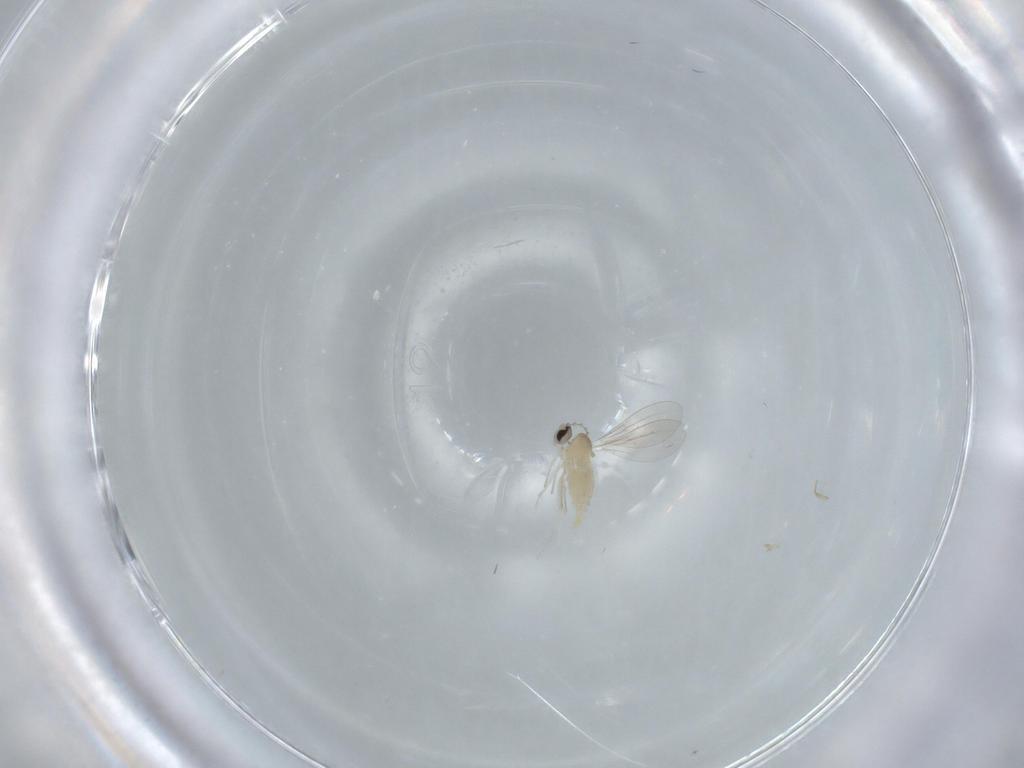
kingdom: Animalia
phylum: Arthropoda
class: Insecta
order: Diptera
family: Cecidomyiidae
